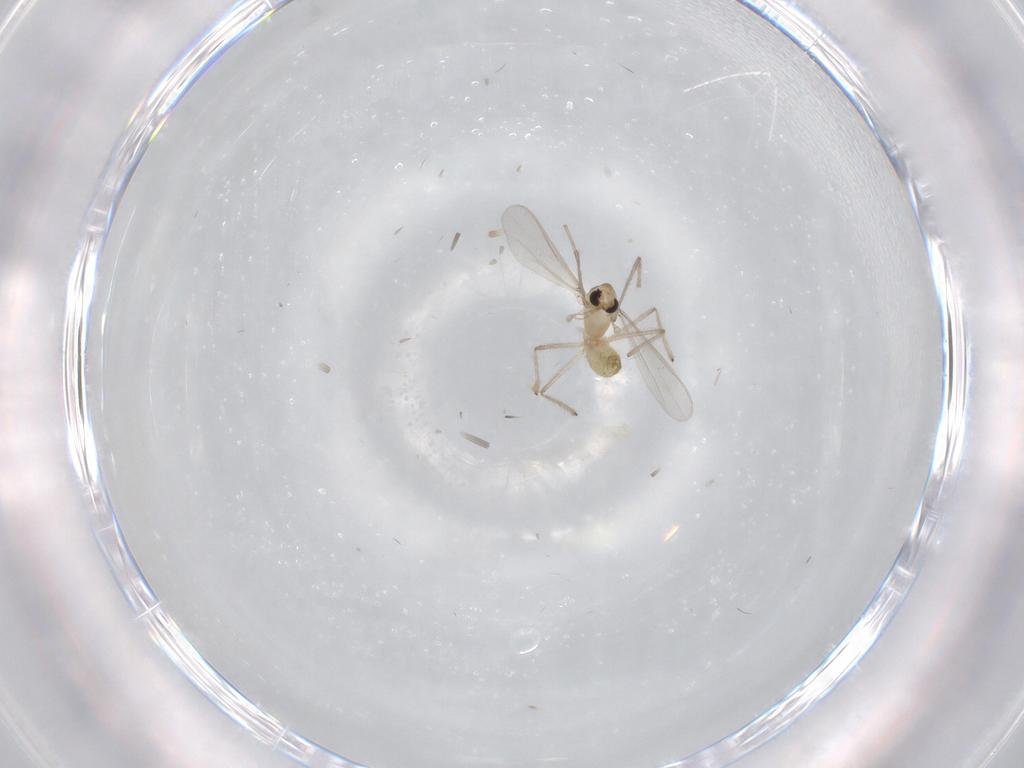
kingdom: Animalia
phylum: Arthropoda
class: Insecta
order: Diptera
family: Chironomidae
